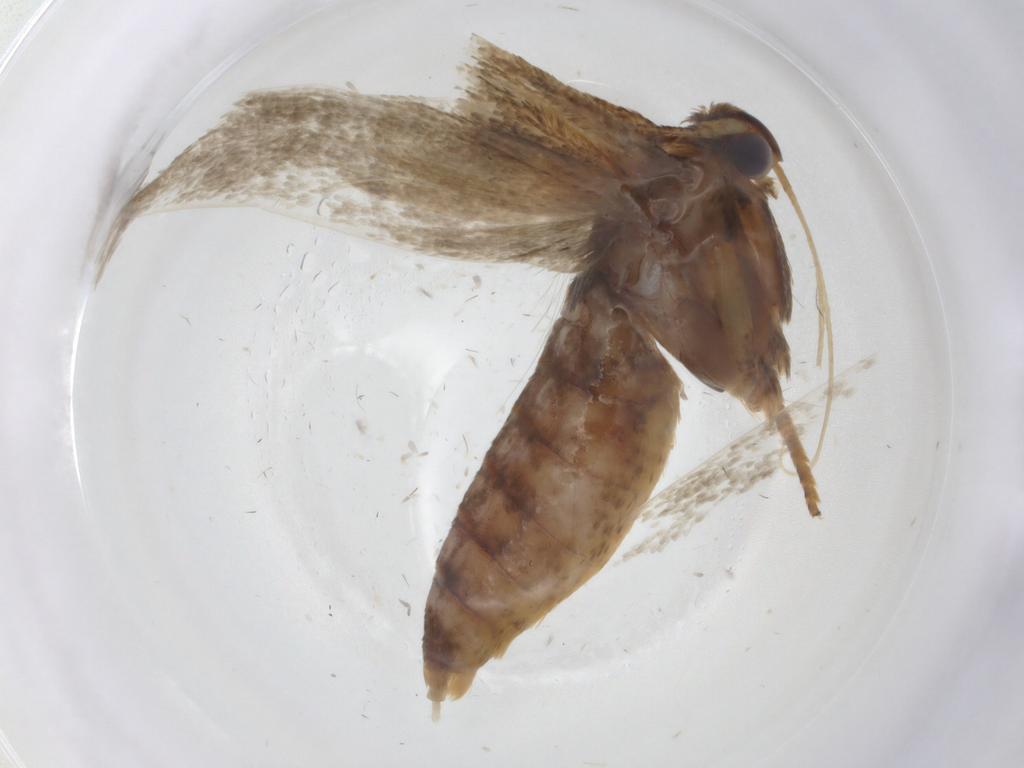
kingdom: Animalia
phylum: Arthropoda
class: Insecta
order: Lepidoptera
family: Blastobasidae
